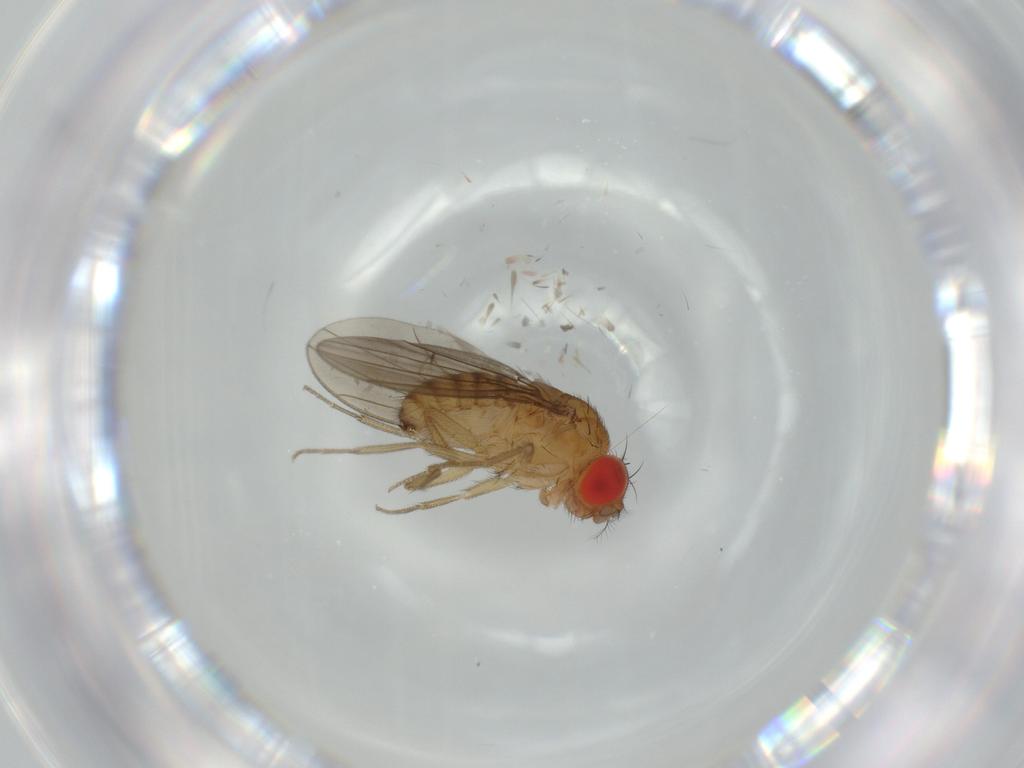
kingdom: Animalia
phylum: Arthropoda
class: Insecta
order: Diptera
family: Drosophilidae
